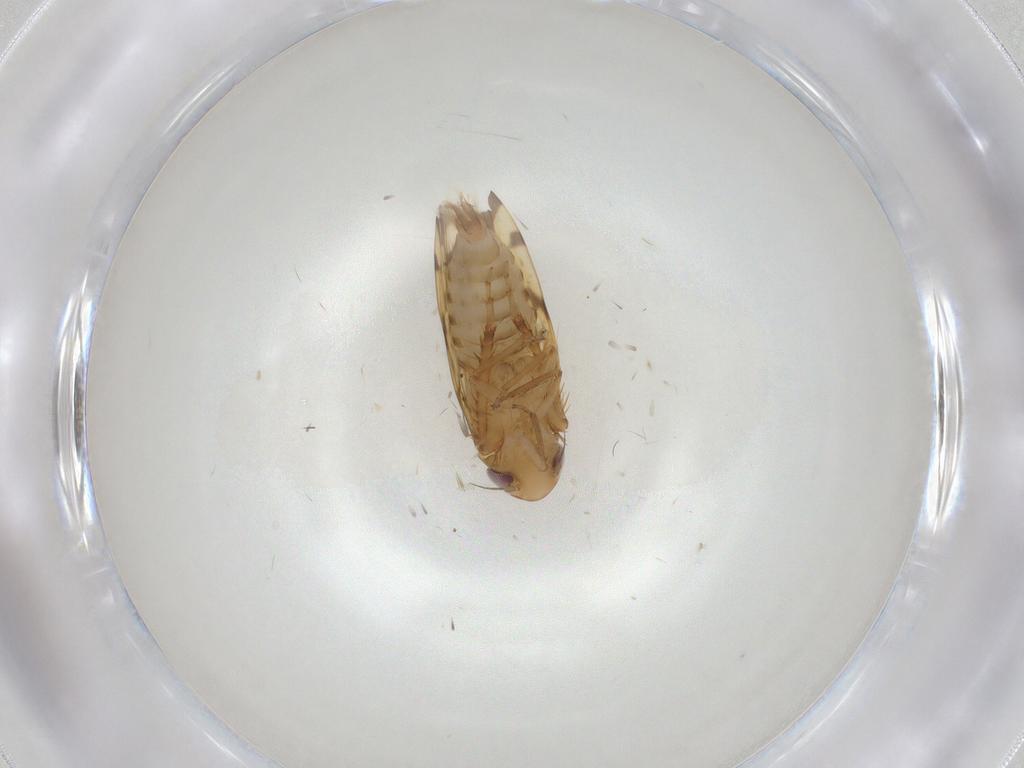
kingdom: Animalia
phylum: Arthropoda
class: Insecta
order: Hemiptera
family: Cicadellidae
